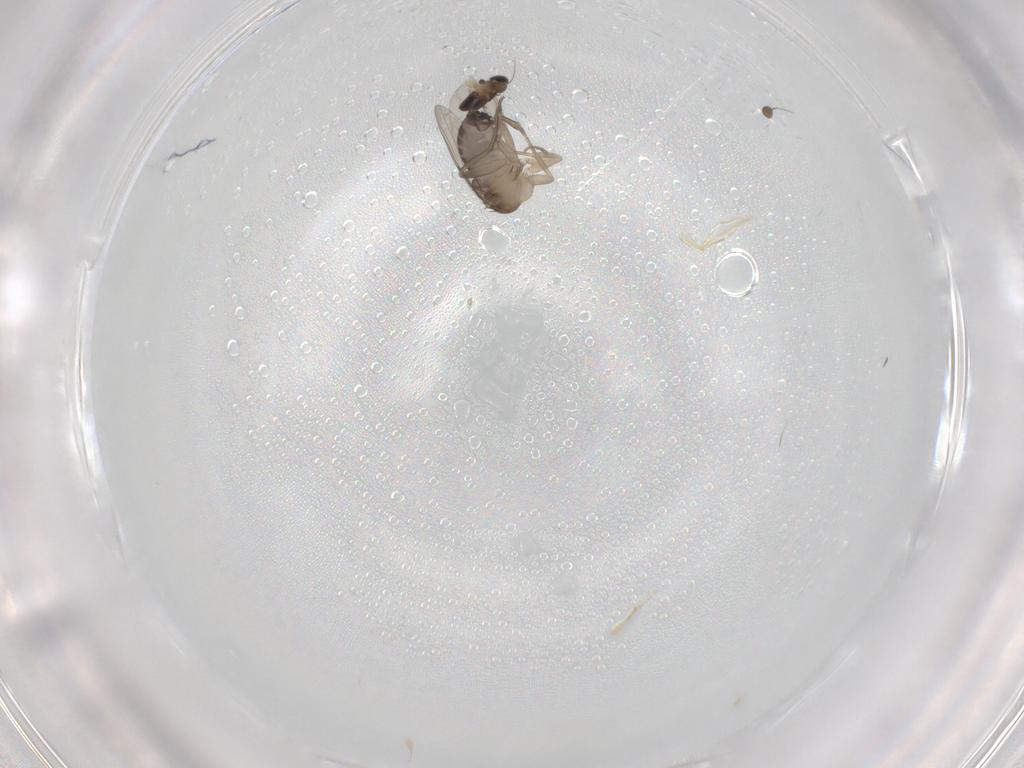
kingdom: Animalia
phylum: Arthropoda
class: Insecta
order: Diptera
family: Phoridae
